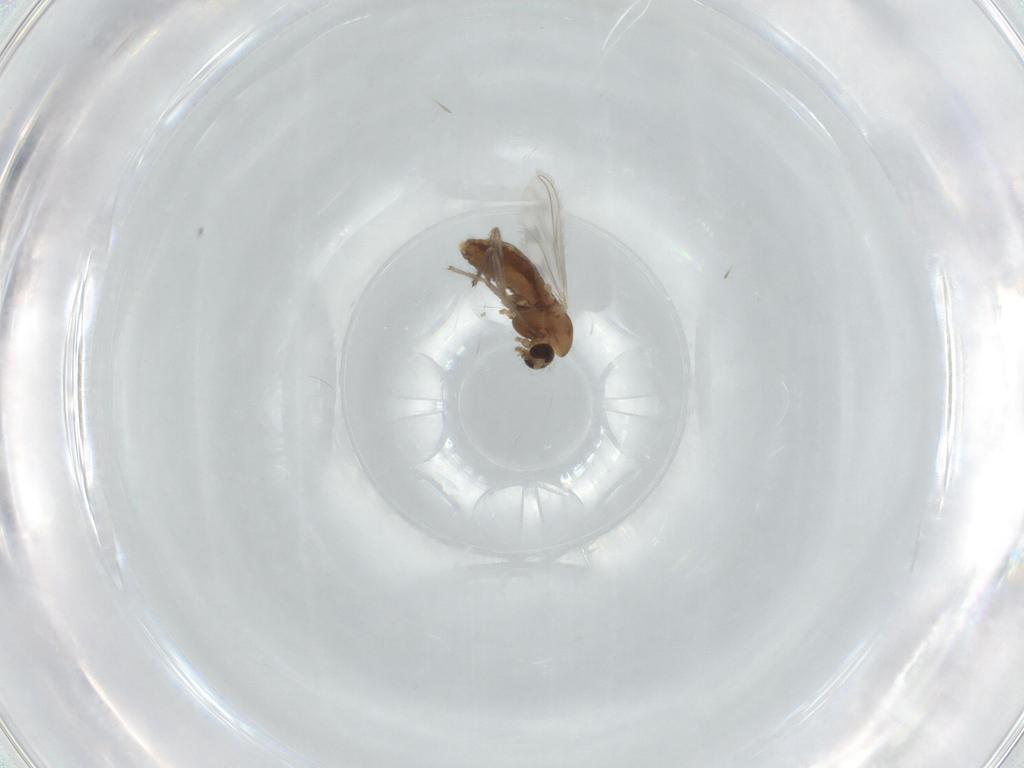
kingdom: Animalia
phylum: Arthropoda
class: Insecta
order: Diptera
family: Chironomidae
